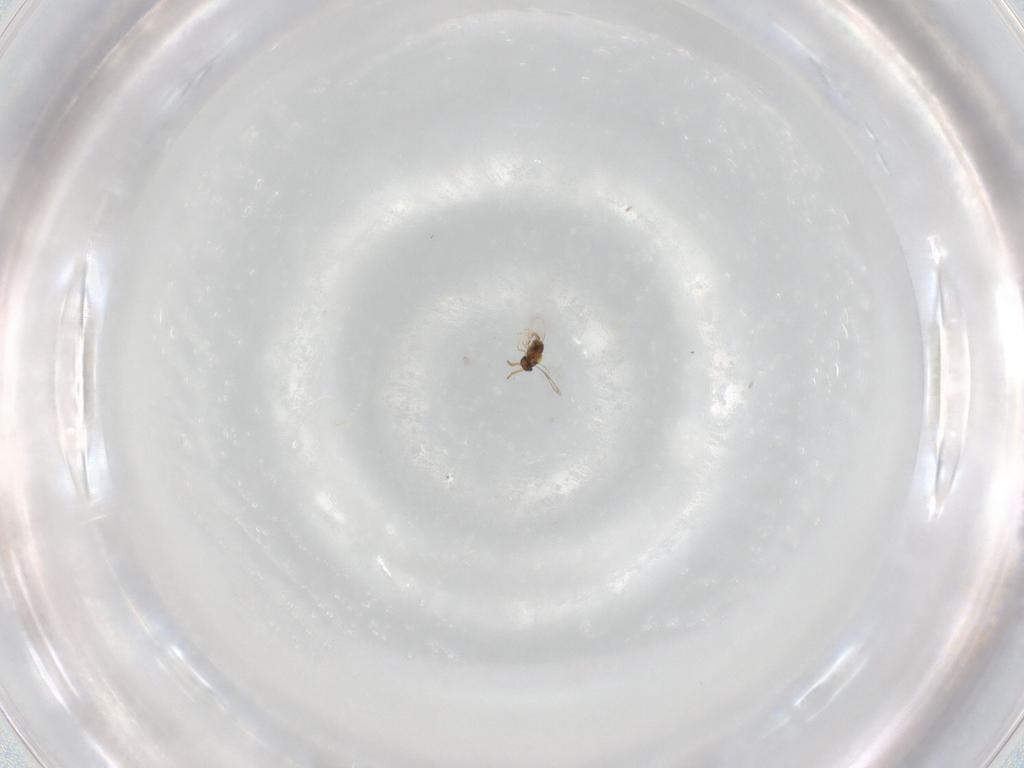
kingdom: Animalia
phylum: Arthropoda
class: Insecta
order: Hymenoptera
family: Aphelinidae
